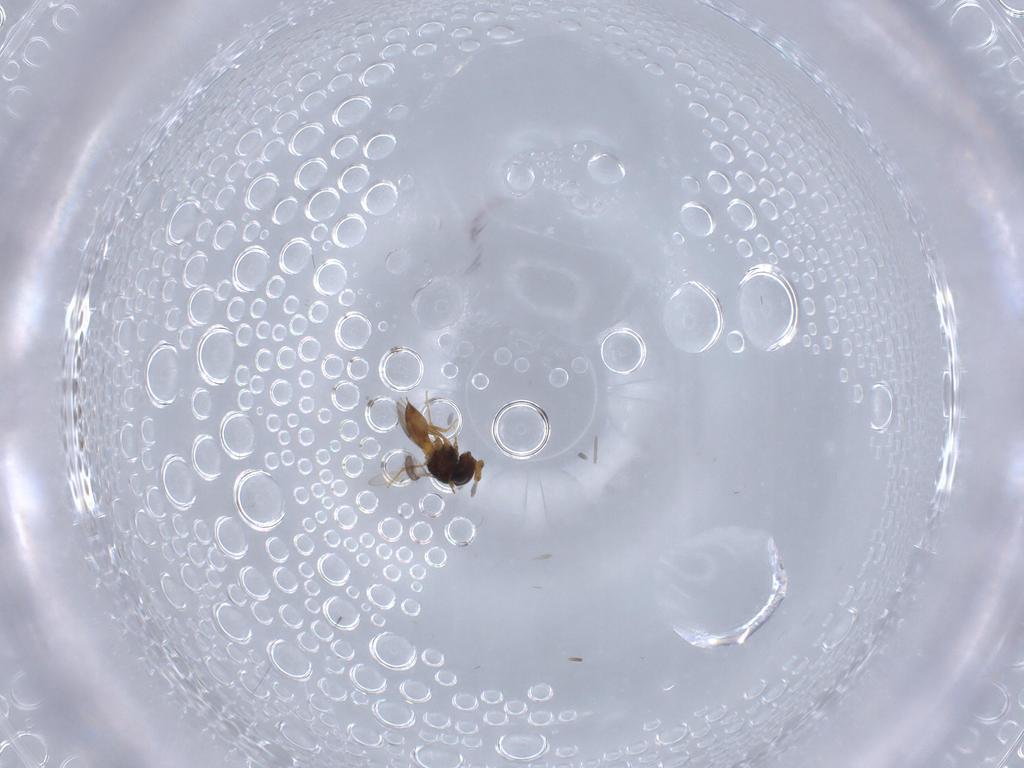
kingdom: Animalia
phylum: Arthropoda
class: Insecta
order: Hymenoptera
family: Scelionidae
